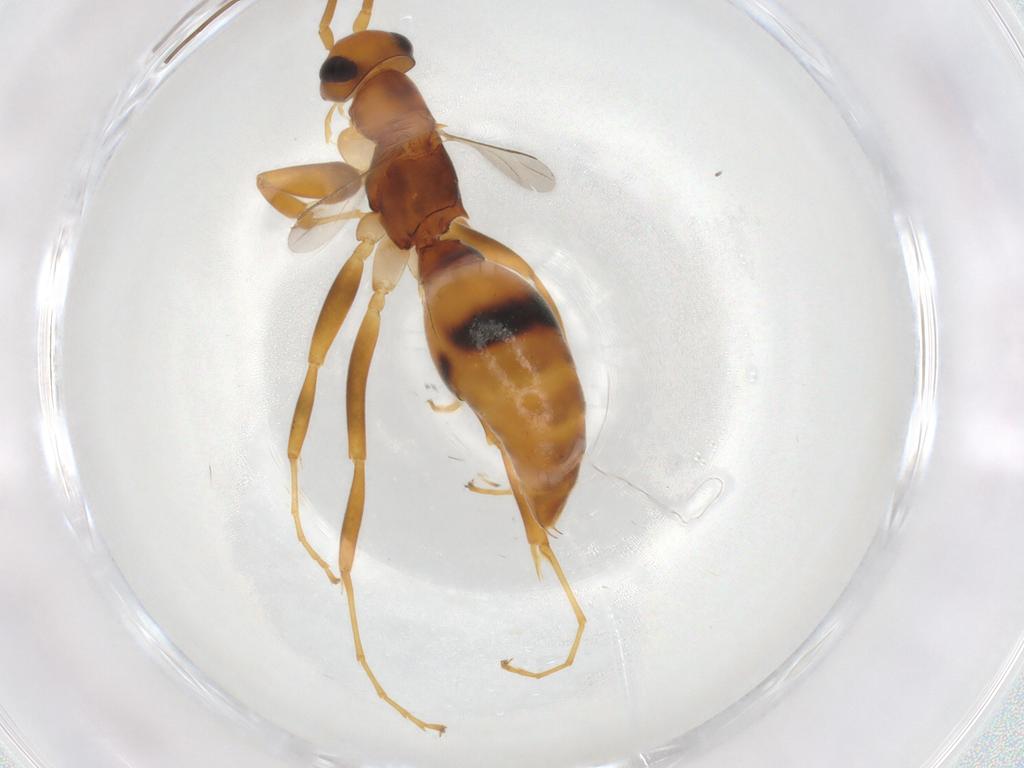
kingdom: Animalia
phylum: Arthropoda
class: Insecta
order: Hymenoptera
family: Rhopalosomatidae
